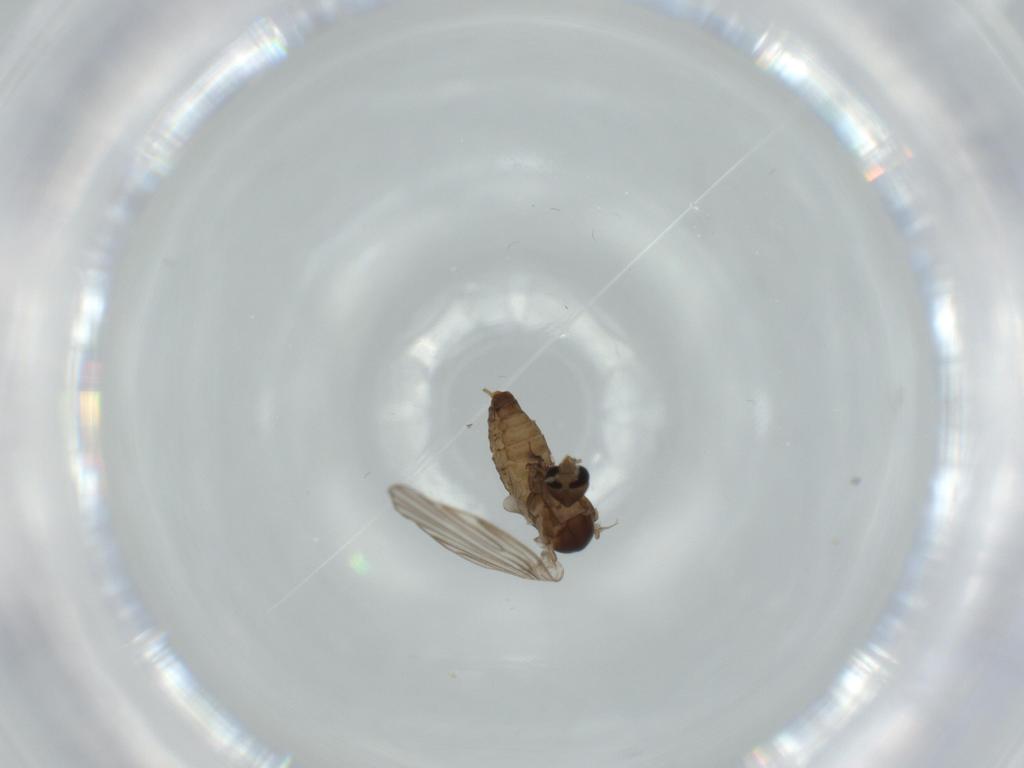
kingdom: Animalia
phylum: Arthropoda
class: Insecta
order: Diptera
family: Psychodidae
